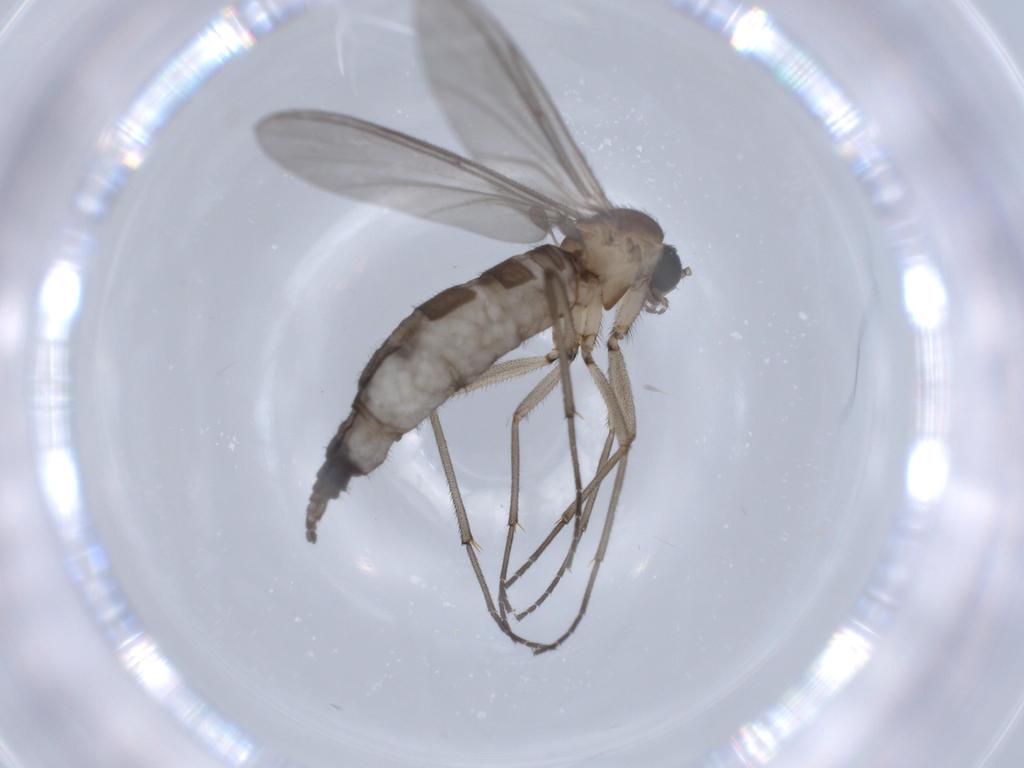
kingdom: Animalia
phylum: Arthropoda
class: Insecta
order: Diptera
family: Sciaridae
